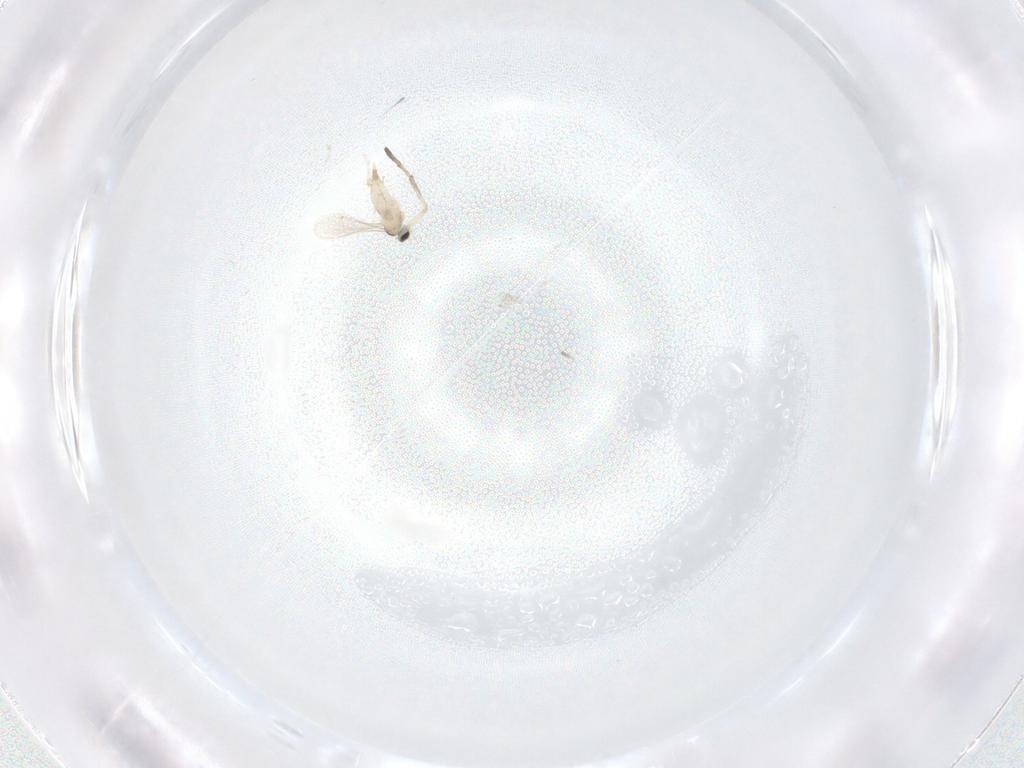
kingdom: Animalia
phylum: Arthropoda
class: Insecta
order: Diptera
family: Cecidomyiidae
